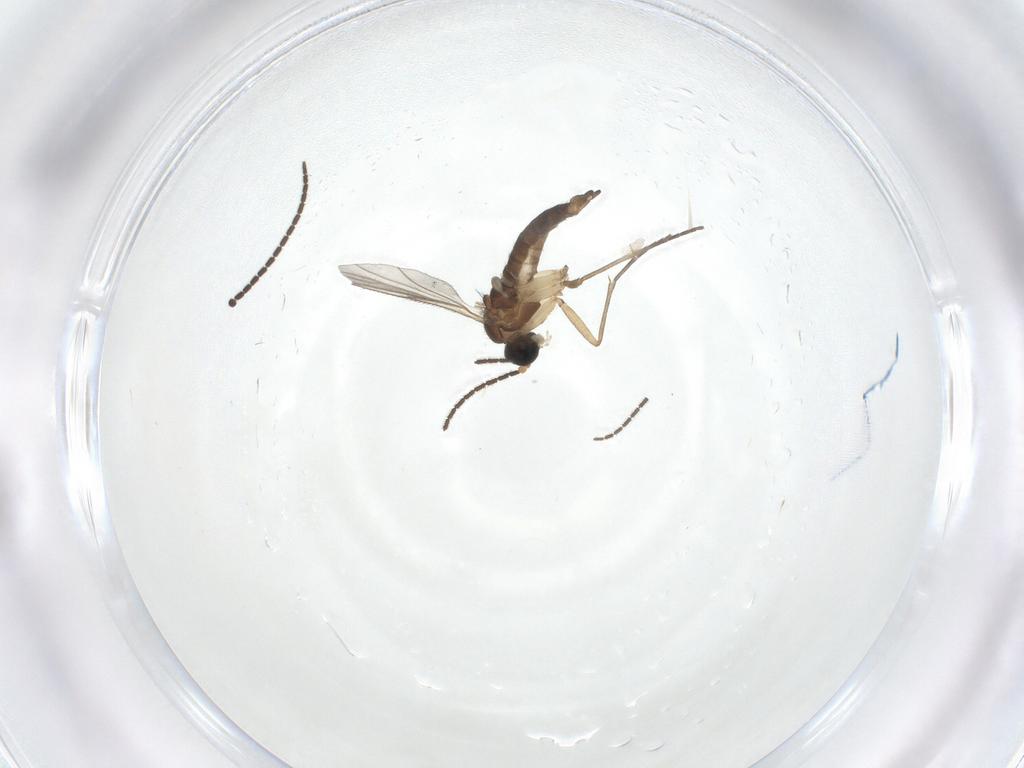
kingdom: Animalia
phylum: Arthropoda
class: Insecta
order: Diptera
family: Sciaridae
